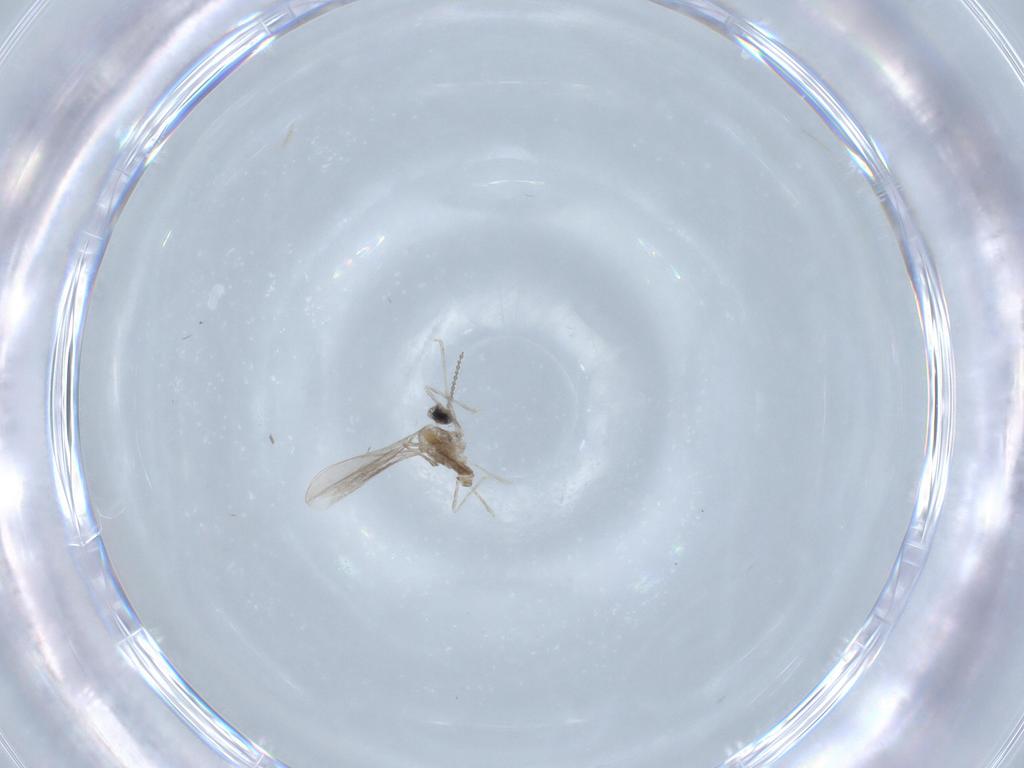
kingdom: Animalia
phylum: Arthropoda
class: Insecta
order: Diptera
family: Cecidomyiidae
